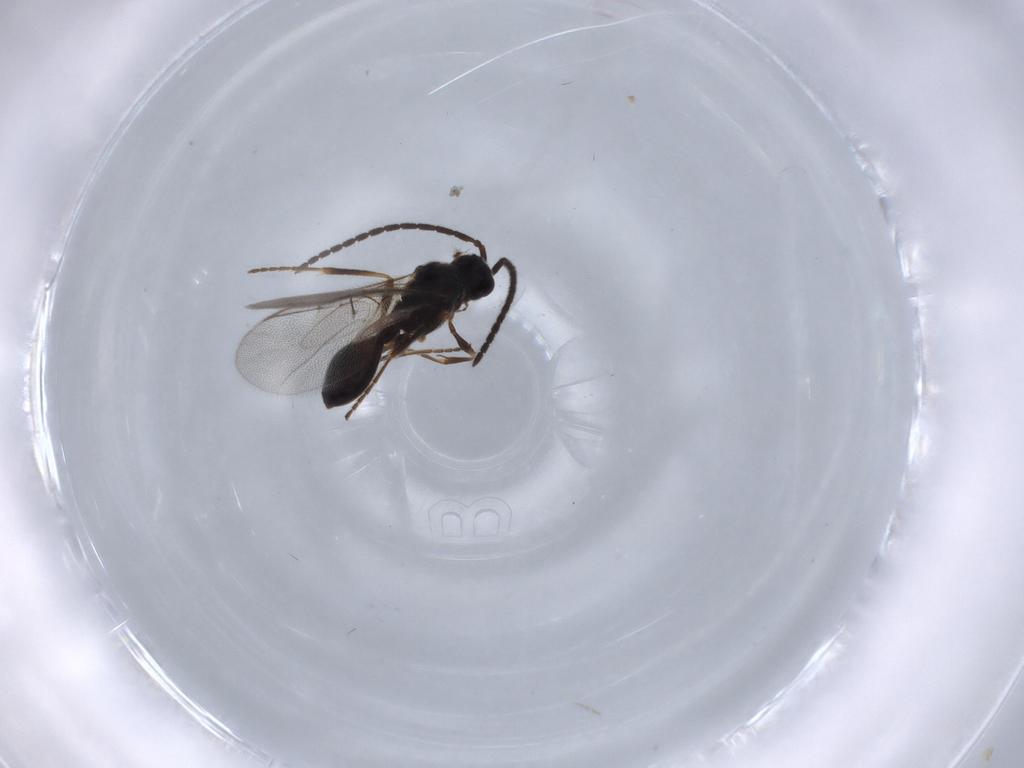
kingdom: Animalia
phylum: Arthropoda
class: Insecta
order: Hymenoptera
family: Diapriidae
